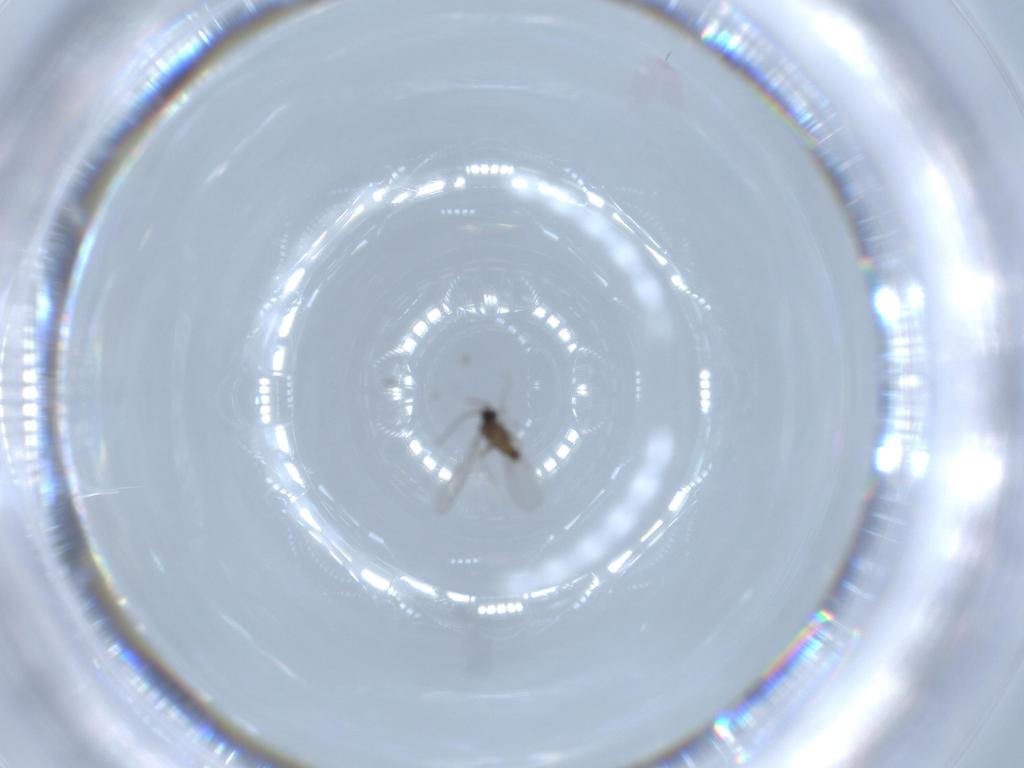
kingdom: Animalia
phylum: Arthropoda
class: Insecta
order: Diptera
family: Cecidomyiidae
